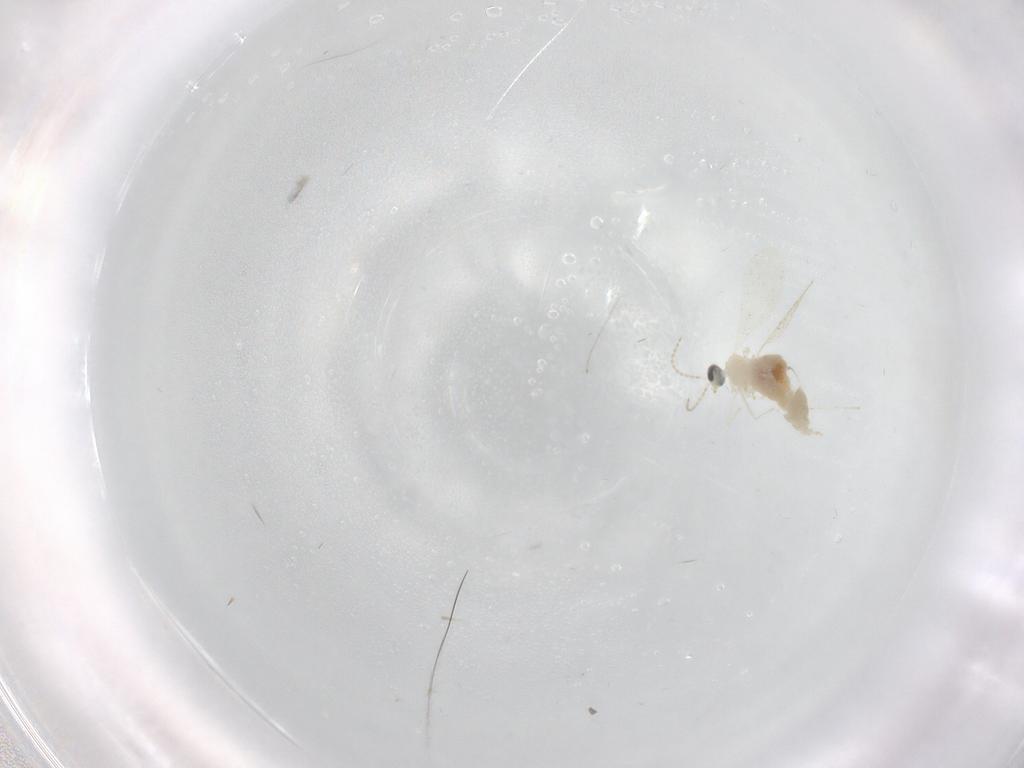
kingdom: Animalia
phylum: Arthropoda
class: Insecta
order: Diptera
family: Cecidomyiidae
